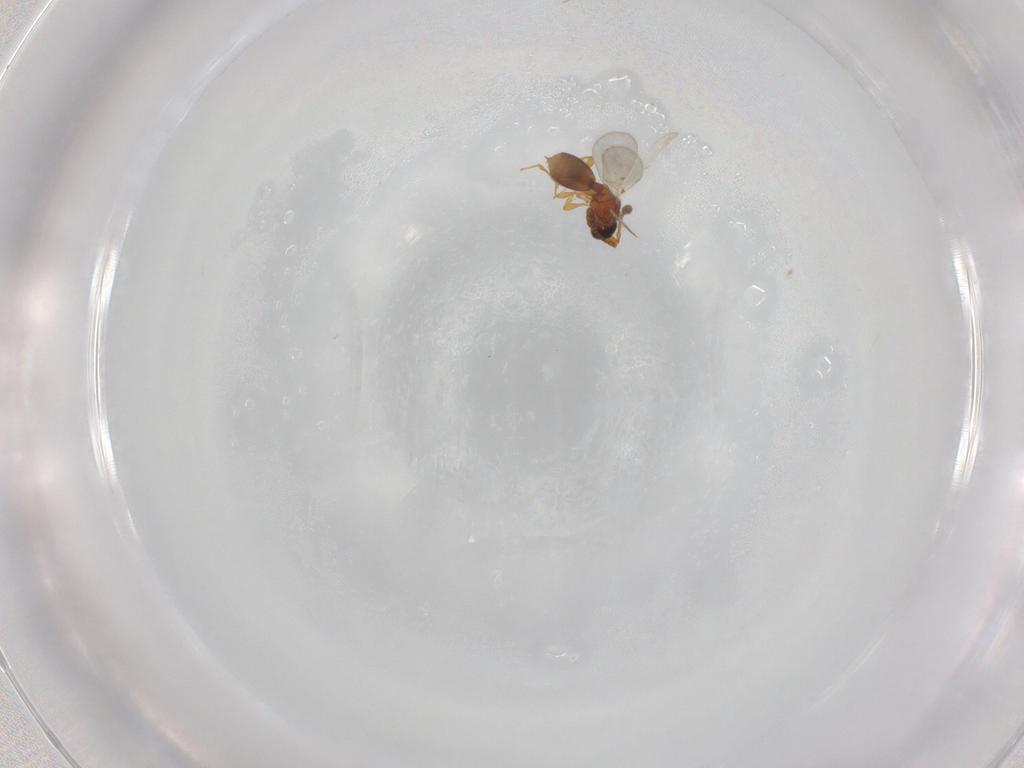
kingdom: Animalia
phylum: Arthropoda
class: Insecta
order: Hymenoptera
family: Diapriidae
